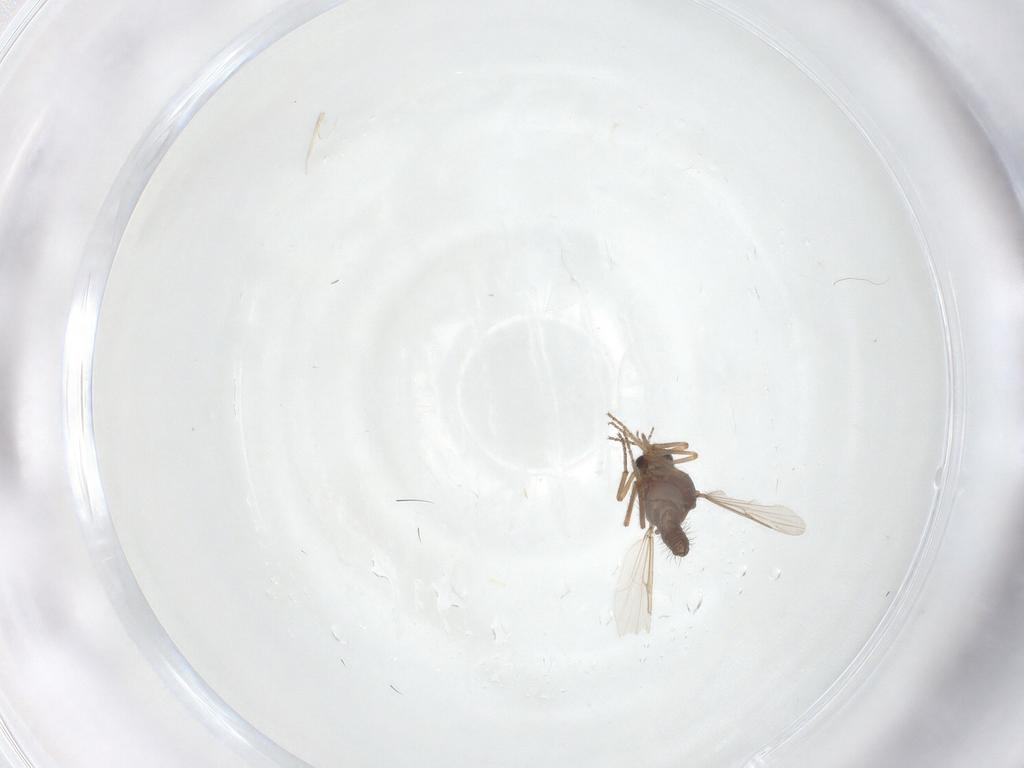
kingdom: Animalia
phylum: Arthropoda
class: Insecta
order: Diptera
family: Ceratopogonidae
